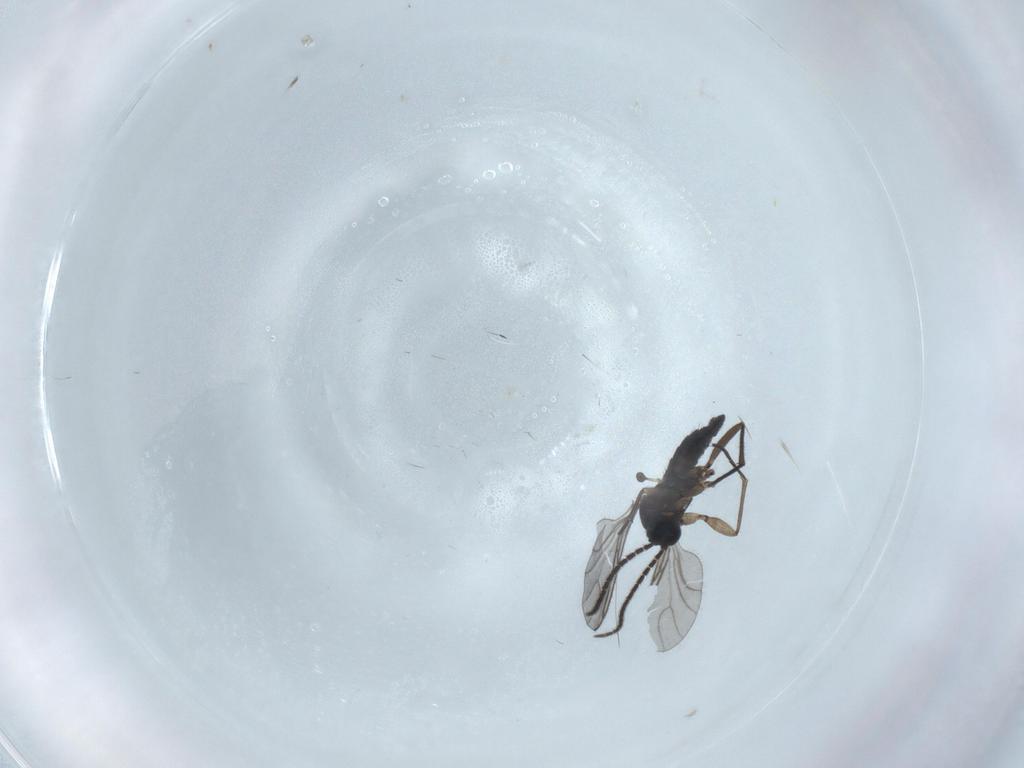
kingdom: Animalia
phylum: Arthropoda
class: Insecta
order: Diptera
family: Sciaridae
